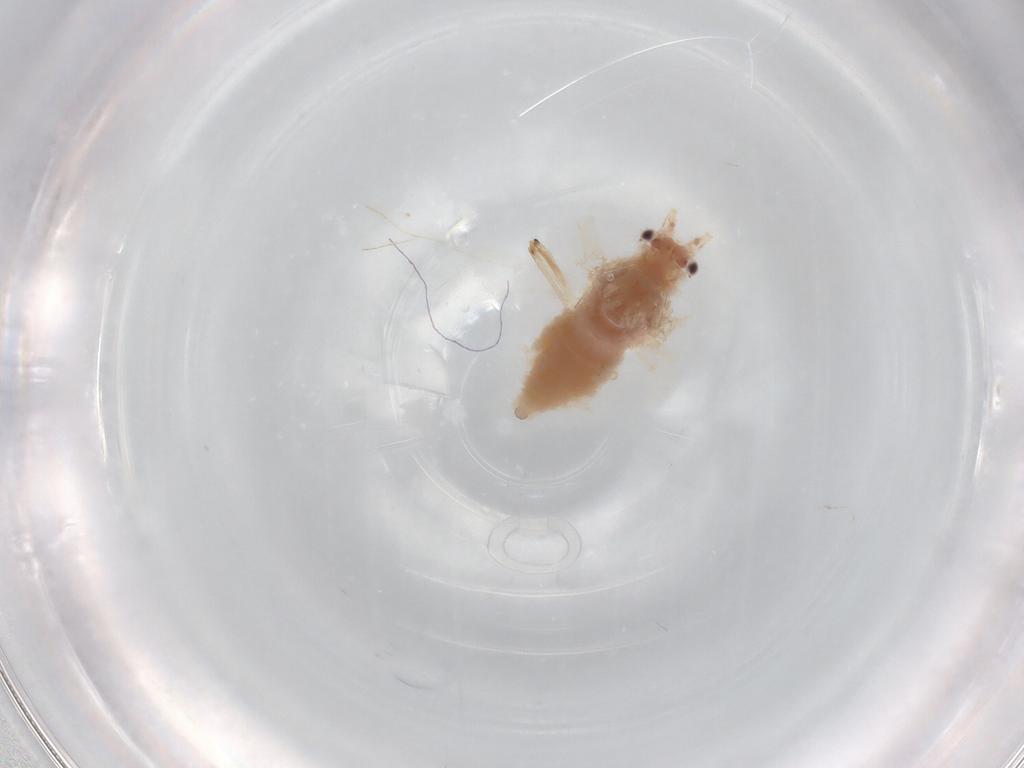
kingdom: Animalia
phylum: Arthropoda
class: Insecta
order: Hemiptera
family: Aphididae
